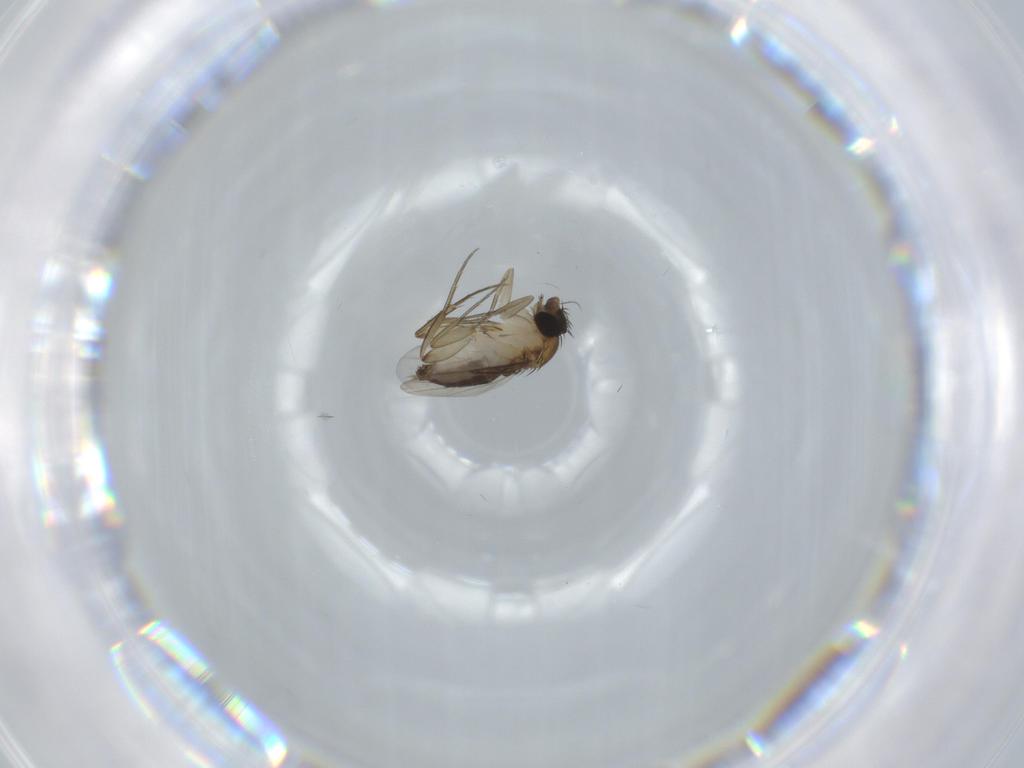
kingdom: Animalia
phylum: Arthropoda
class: Insecta
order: Diptera
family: Phoridae
